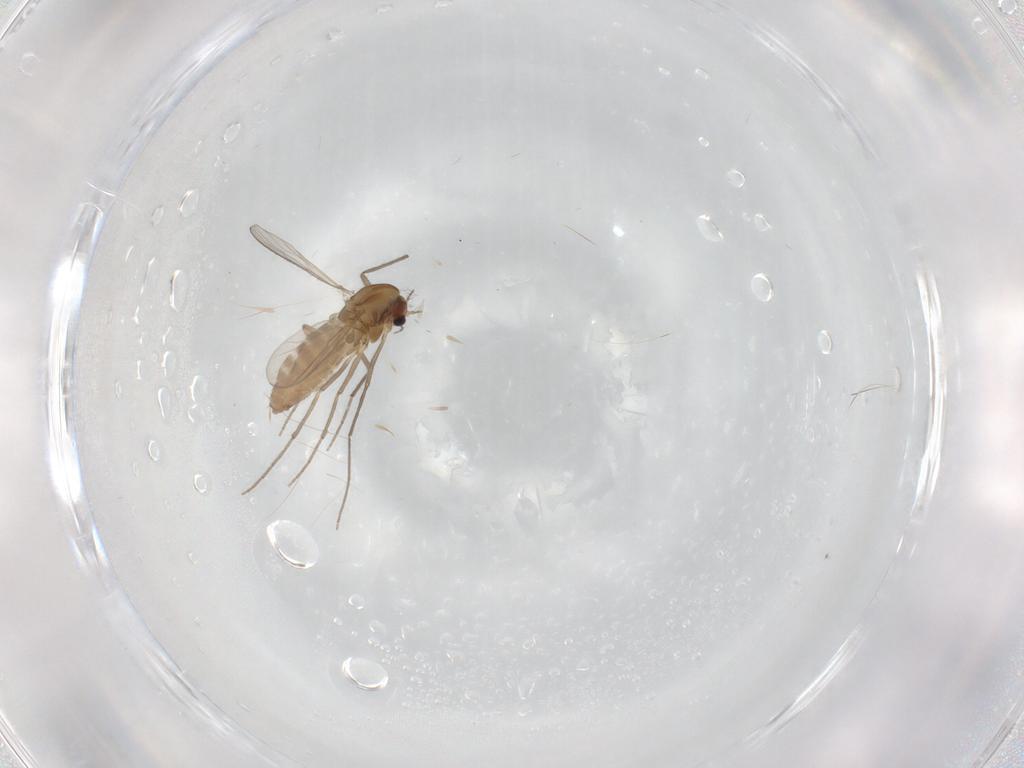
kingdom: Animalia
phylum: Arthropoda
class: Insecta
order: Diptera
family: Chironomidae
